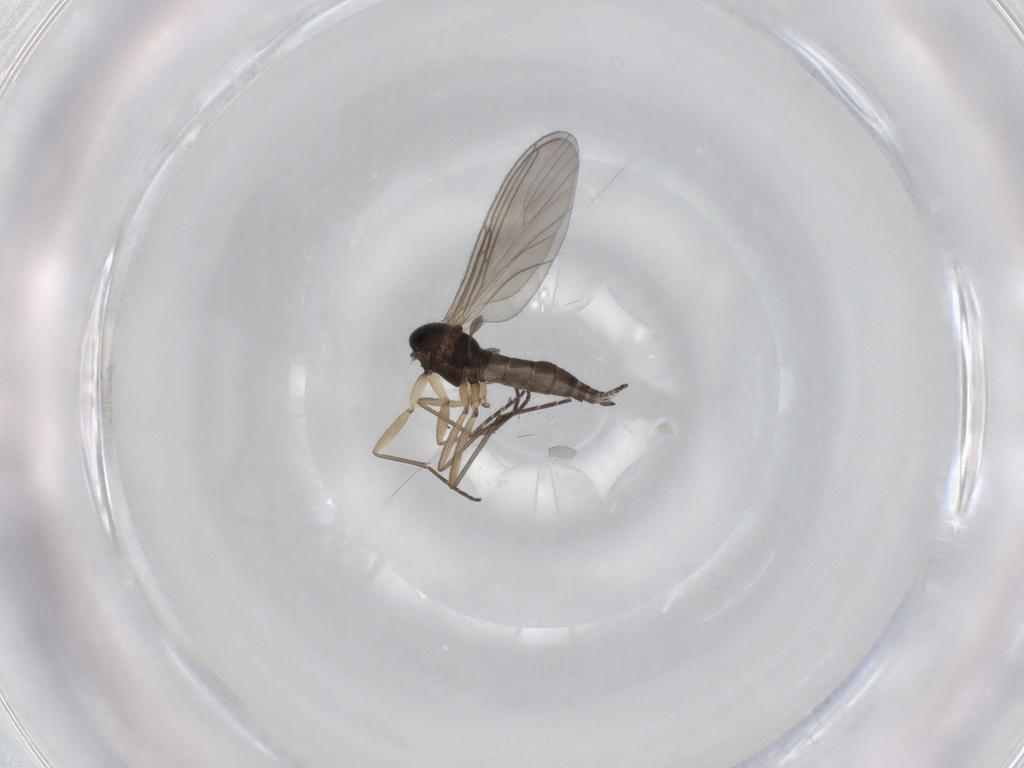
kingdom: Animalia
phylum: Arthropoda
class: Insecta
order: Diptera
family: Sciaridae
